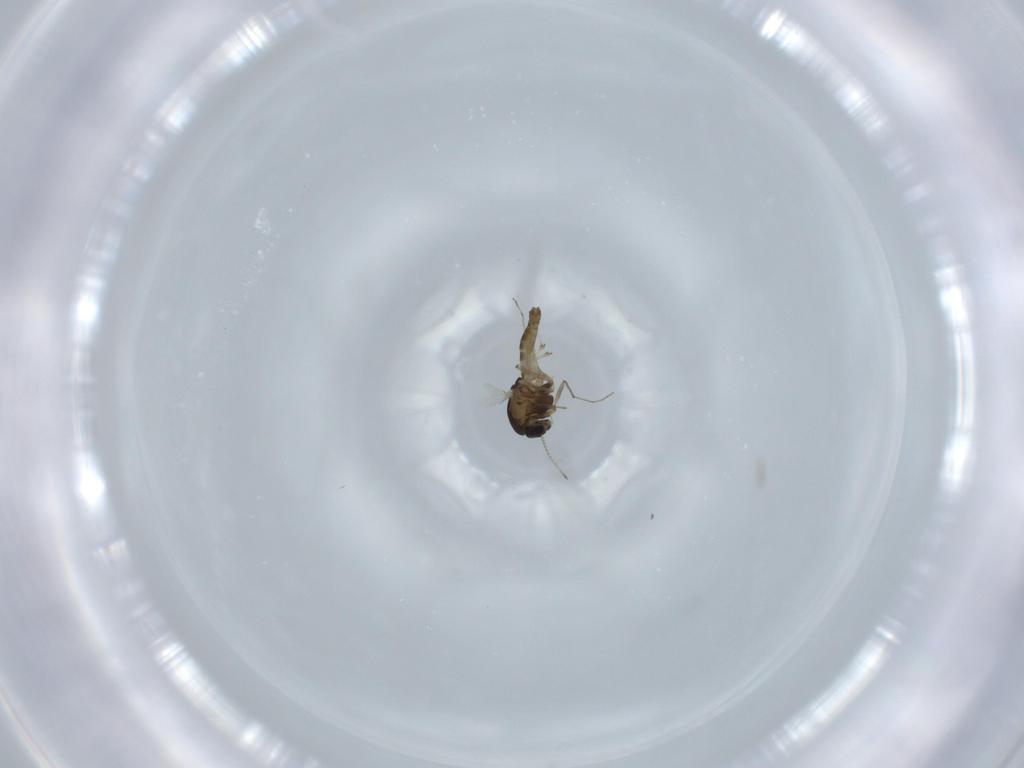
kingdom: Animalia
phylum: Arthropoda
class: Insecta
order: Diptera
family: Chironomidae
